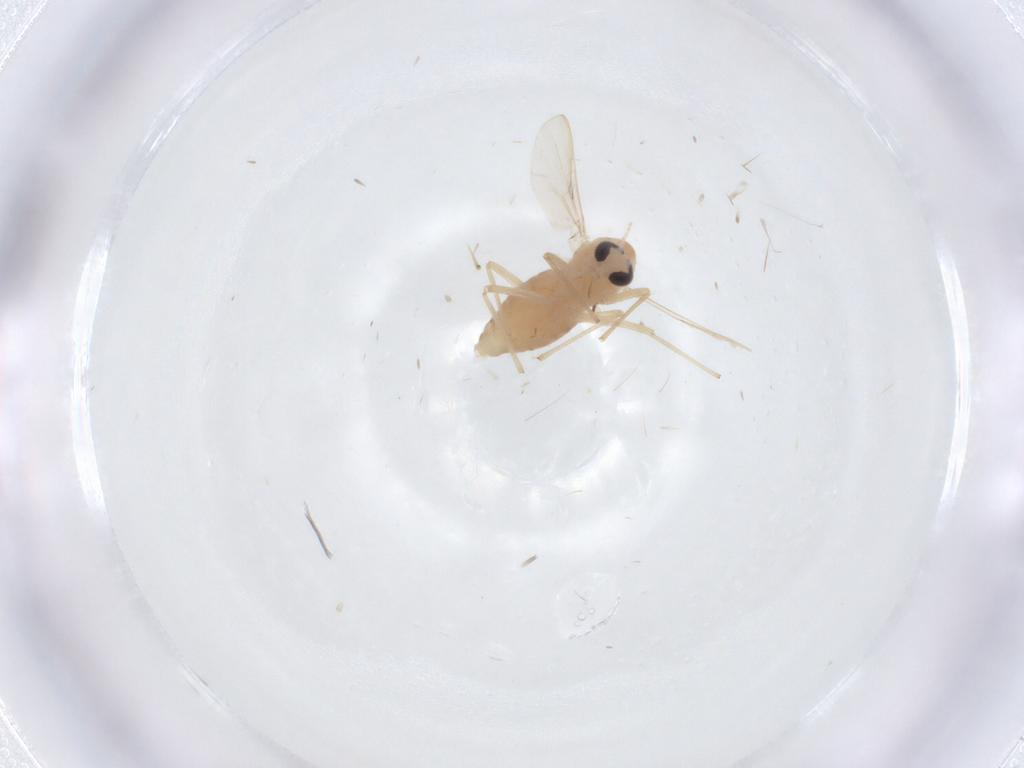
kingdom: Animalia
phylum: Arthropoda
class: Insecta
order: Diptera
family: Chironomidae
